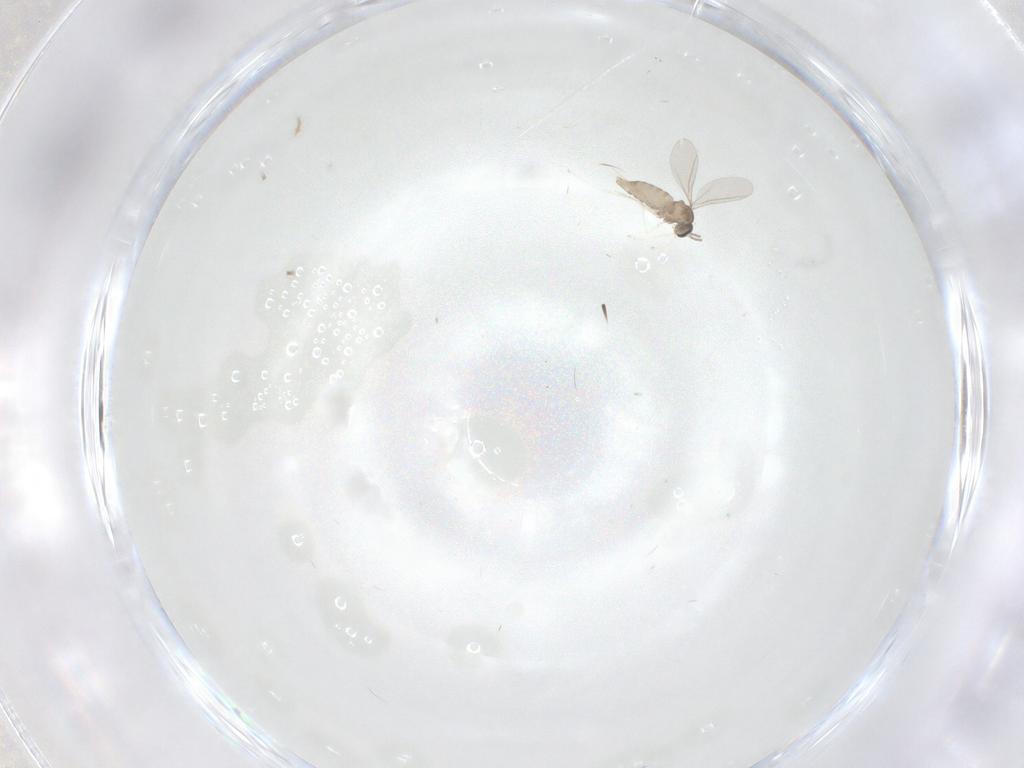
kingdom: Animalia
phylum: Arthropoda
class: Insecta
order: Diptera
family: Cecidomyiidae
